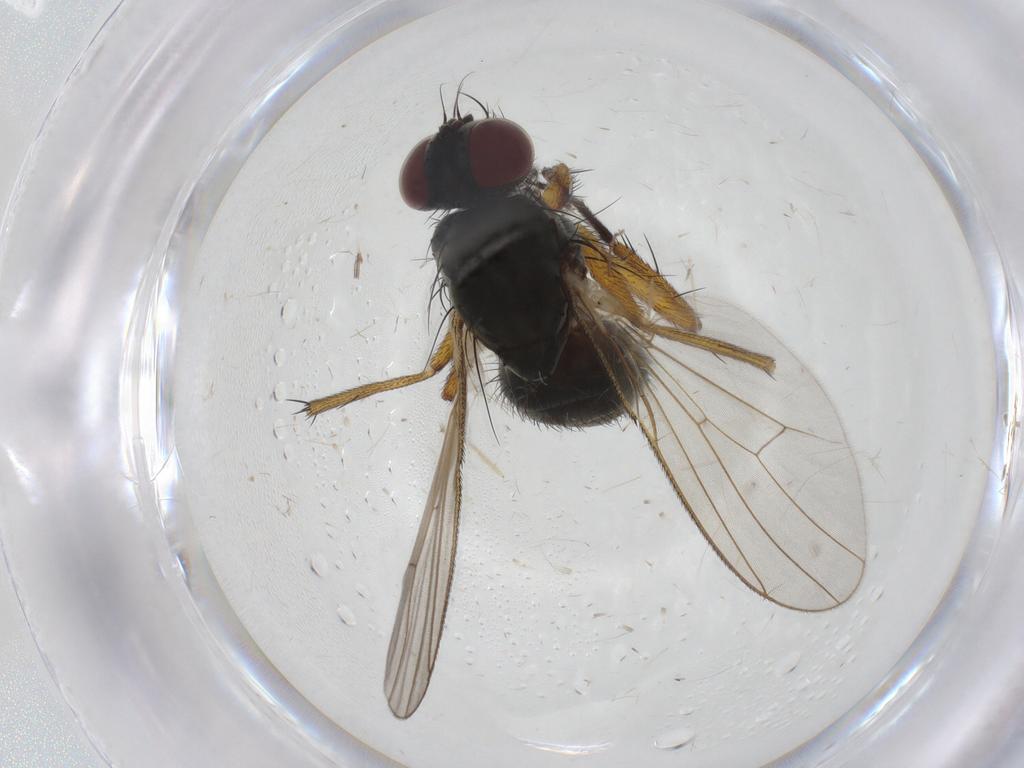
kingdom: Animalia
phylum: Arthropoda
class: Insecta
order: Diptera
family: Muscidae
